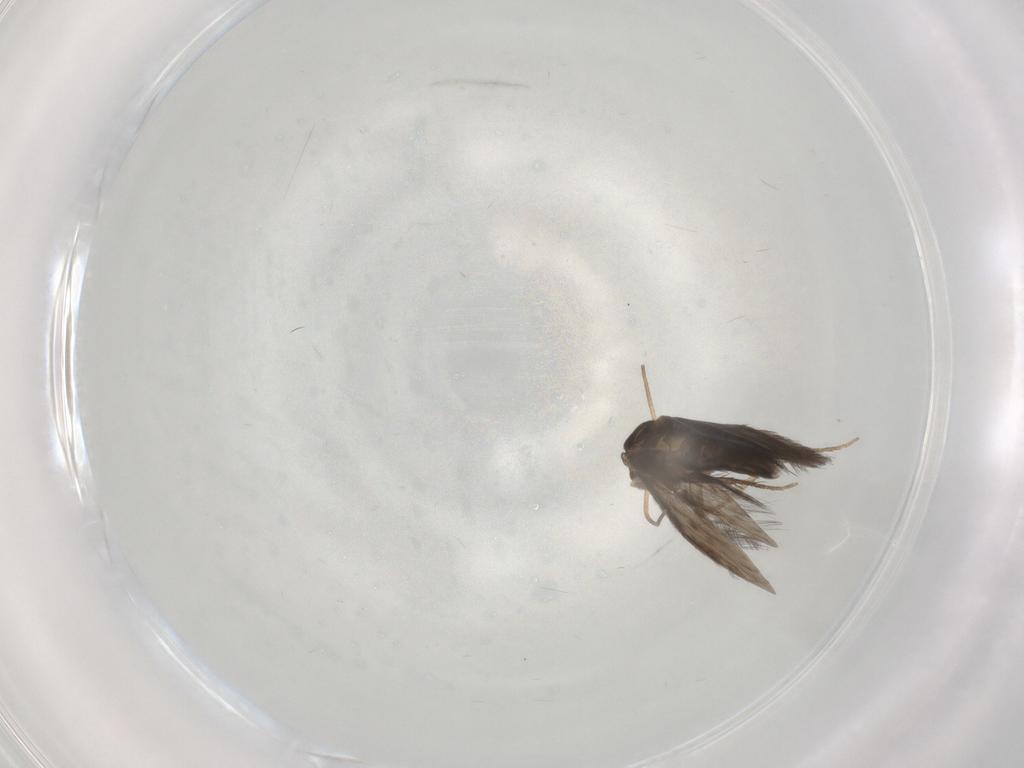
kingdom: Animalia
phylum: Arthropoda
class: Insecta
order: Trichoptera
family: Hydroptilidae
